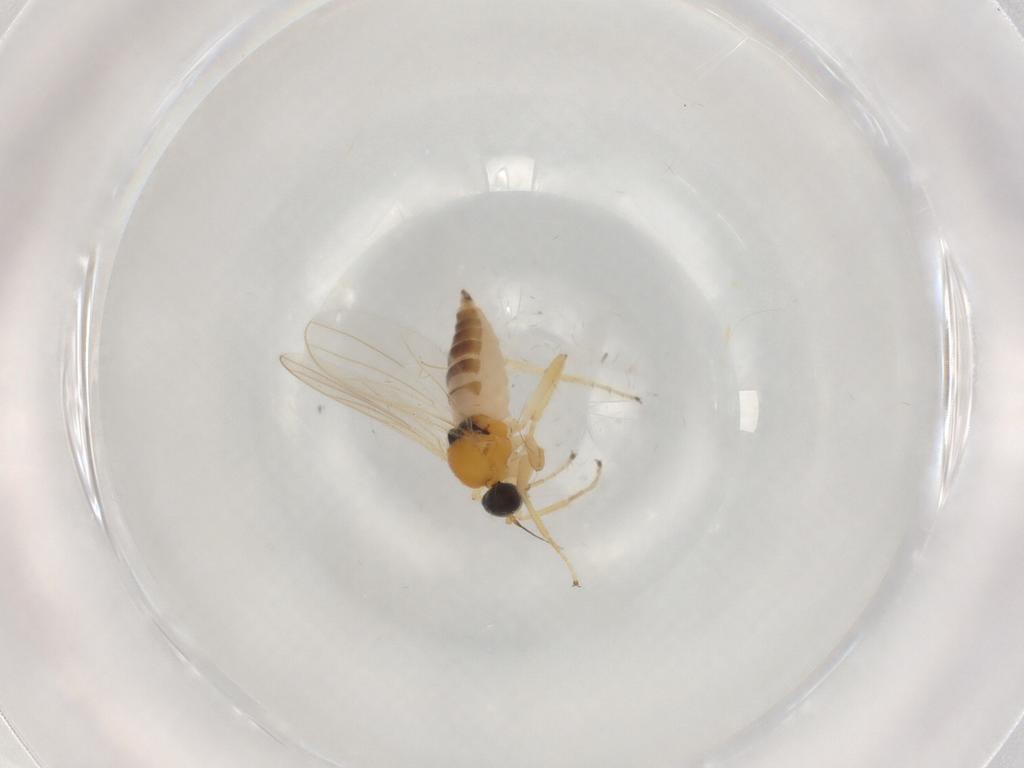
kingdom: Animalia
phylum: Arthropoda
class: Insecta
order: Diptera
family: Hybotidae
